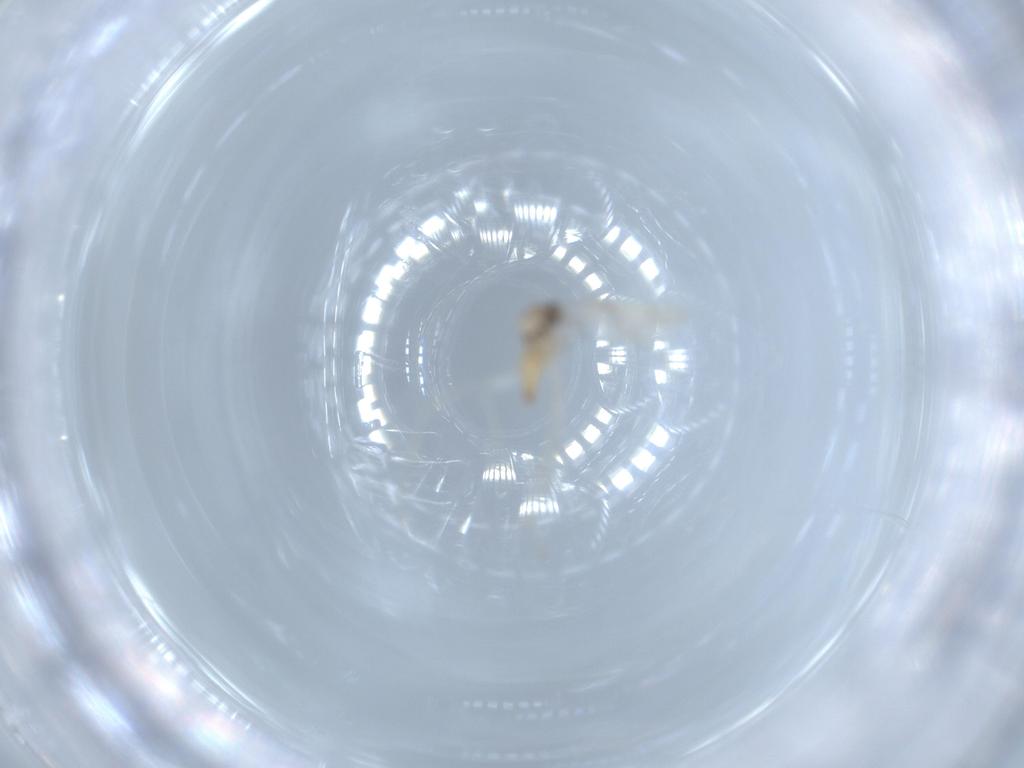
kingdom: Animalia
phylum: Arthropoda
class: Insecta
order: Diptera
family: Cecidomyiidae
